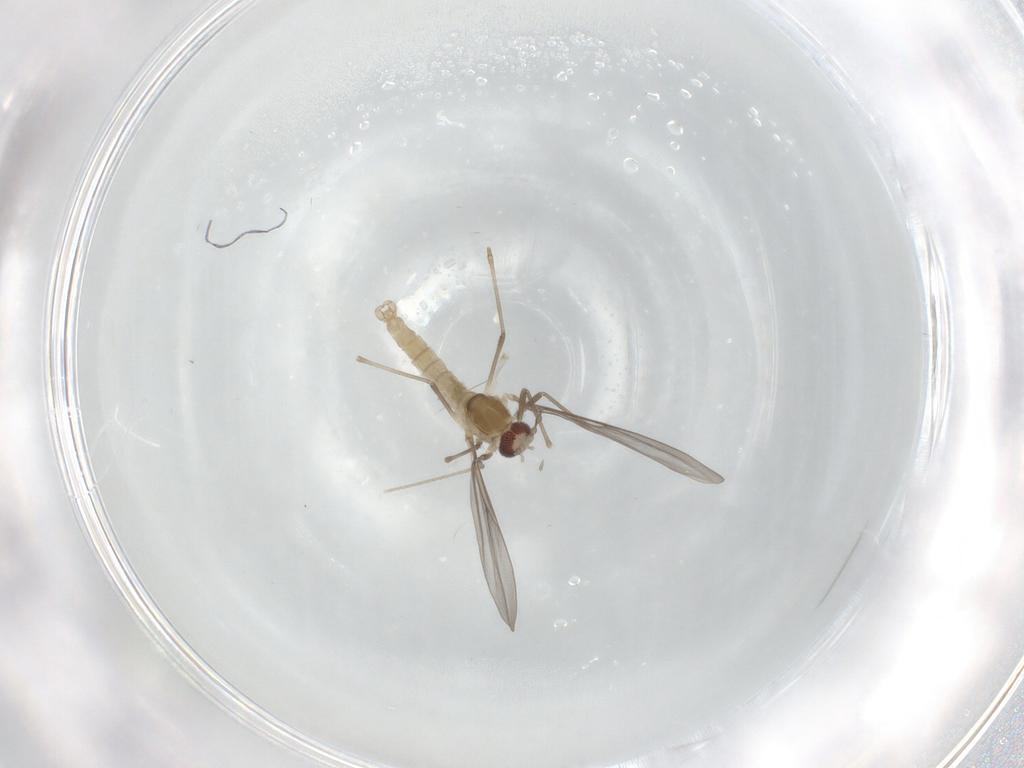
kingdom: Animalia
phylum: Arthropoda
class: Insecta
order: Diptera
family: Cecidomyiidae
